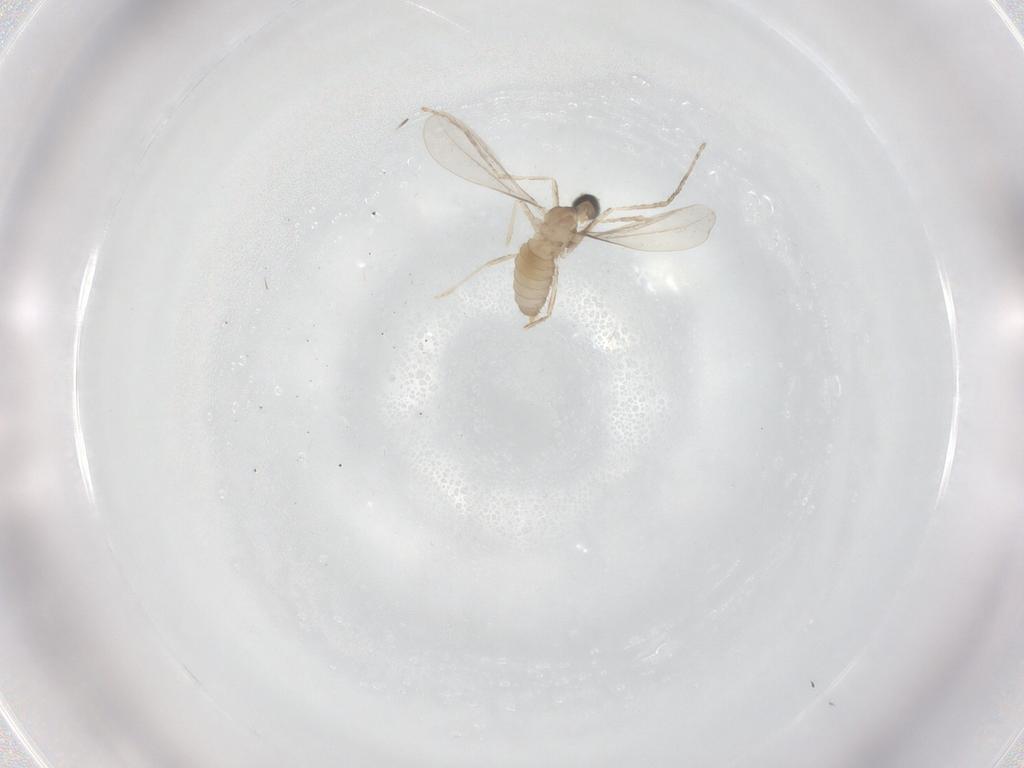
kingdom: Animalia
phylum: Arthropoda
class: Insecta
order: Diptera
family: Cecidomyiidae
